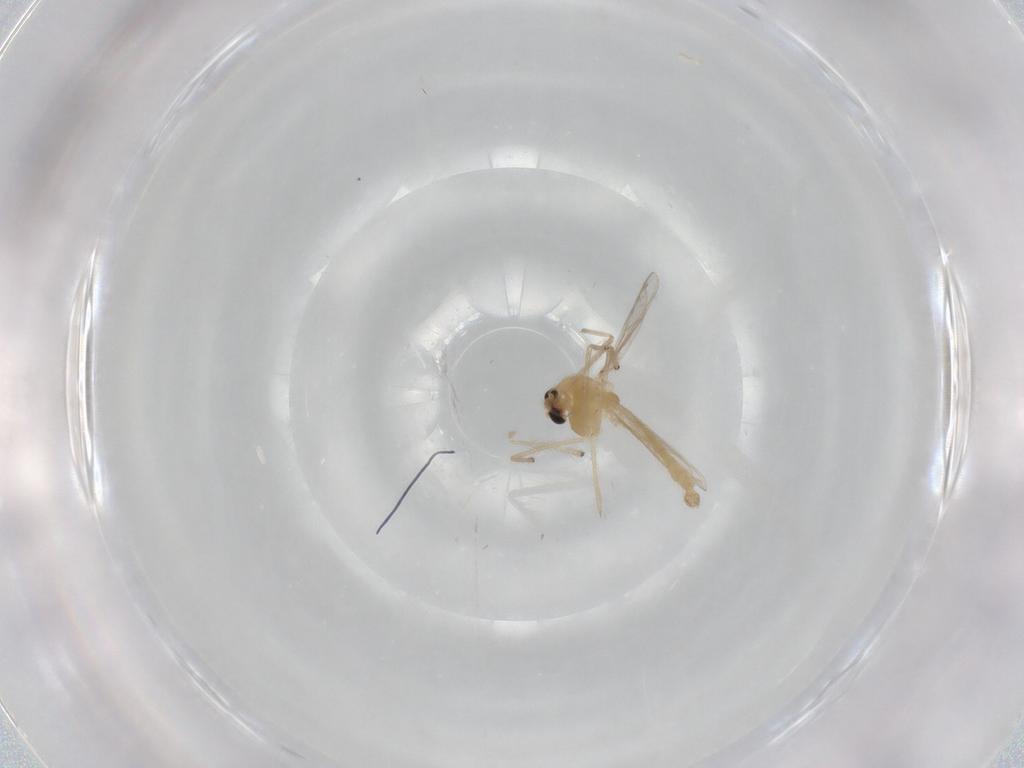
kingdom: Animalia
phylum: Arthropoda
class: Insecta
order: Diptera
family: Chironomidae
